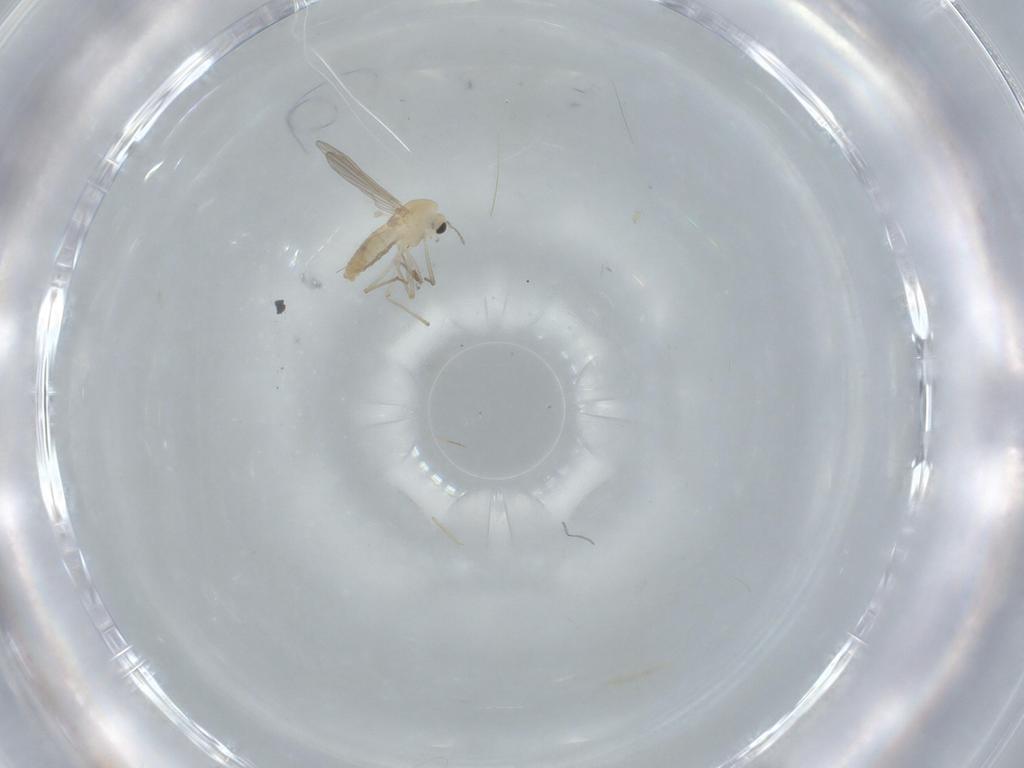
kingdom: Animalia
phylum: Arthropoda
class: Insecta
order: Diptera
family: Chironomidae
